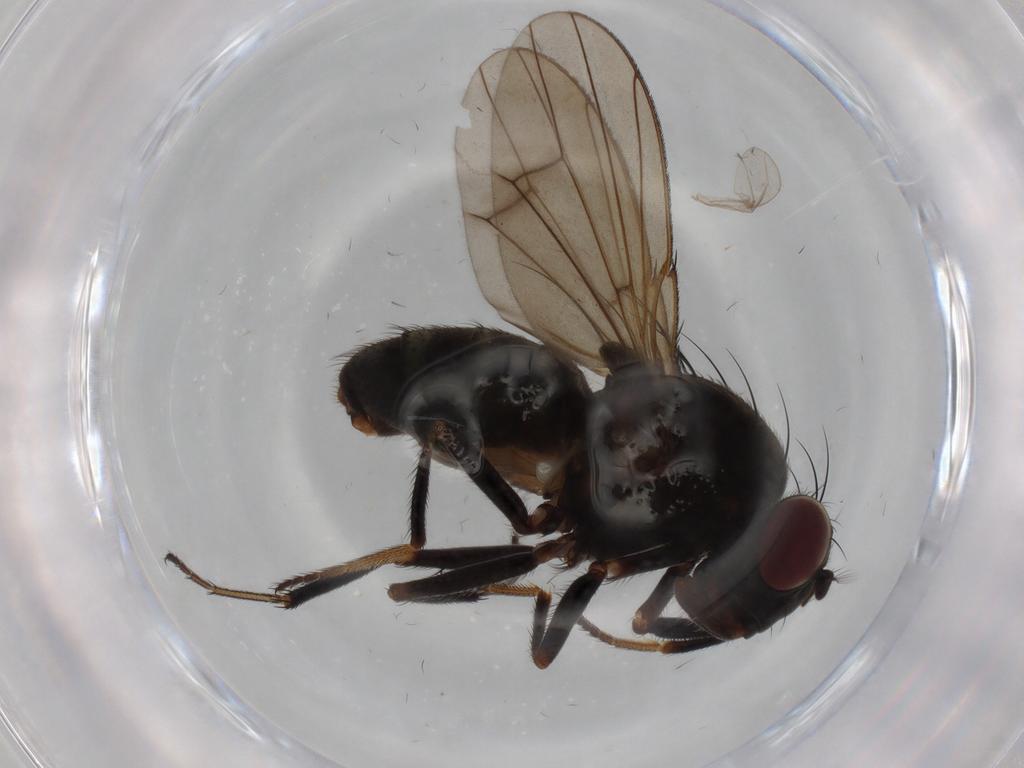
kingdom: Animalia
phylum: Arthropoda
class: Insecta
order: Diptera
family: Ephydridae
